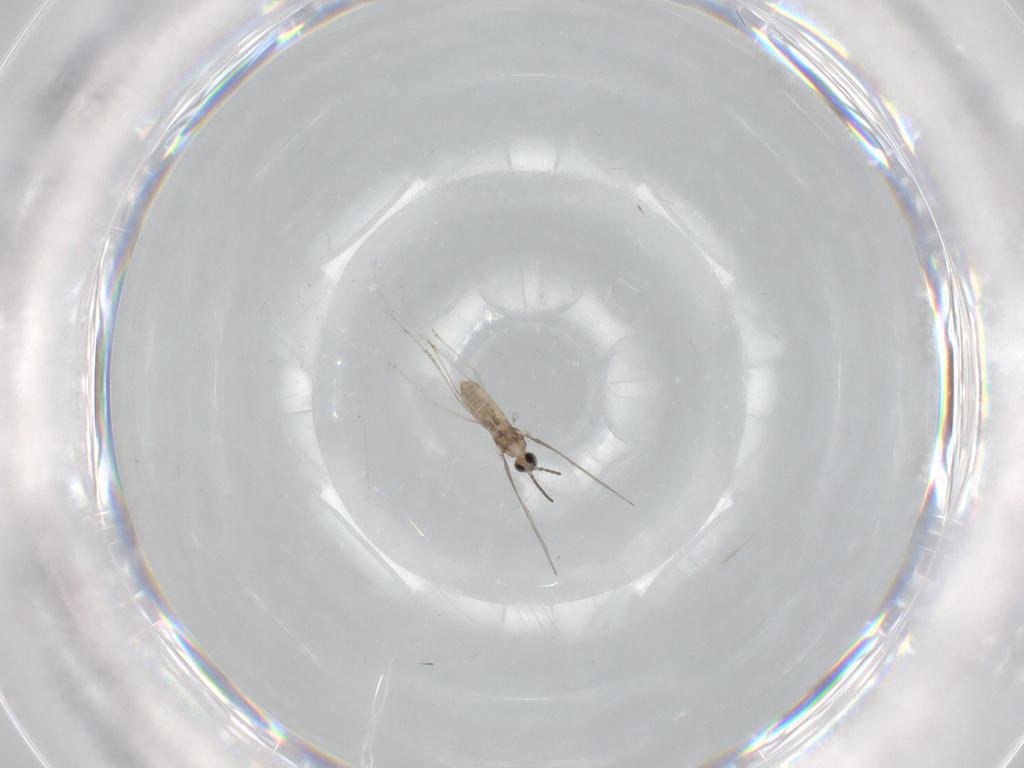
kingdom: Animalia
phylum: Arthropoda
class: Insecta
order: Diptera
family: Cecidomyiidae
